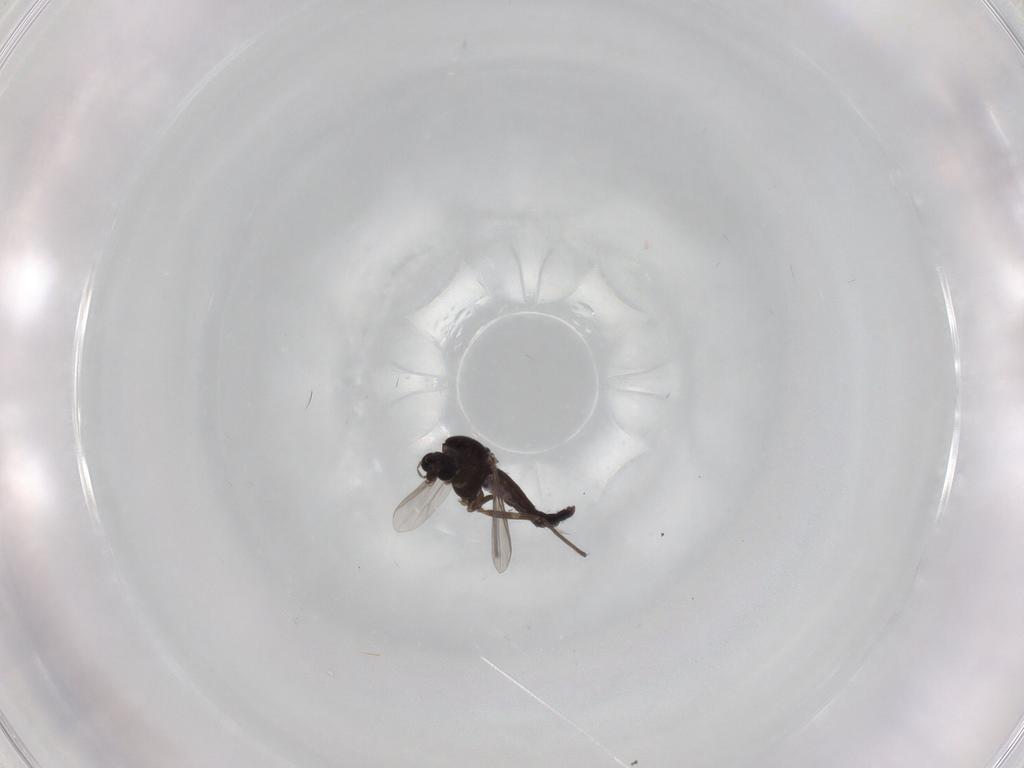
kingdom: Animalia
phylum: Arthropoda
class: Insecta
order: Diptera
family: Chironomidae
